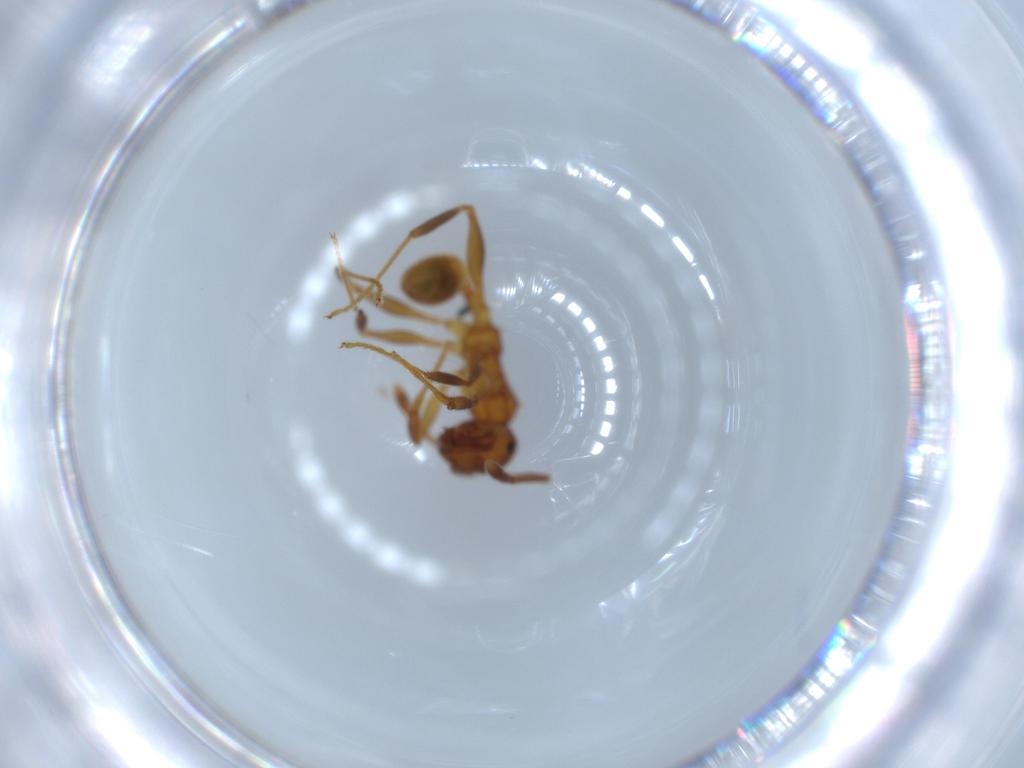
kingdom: Animalia
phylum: Arthropoda
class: Insecta
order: Hymenoptera
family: Formicidae
